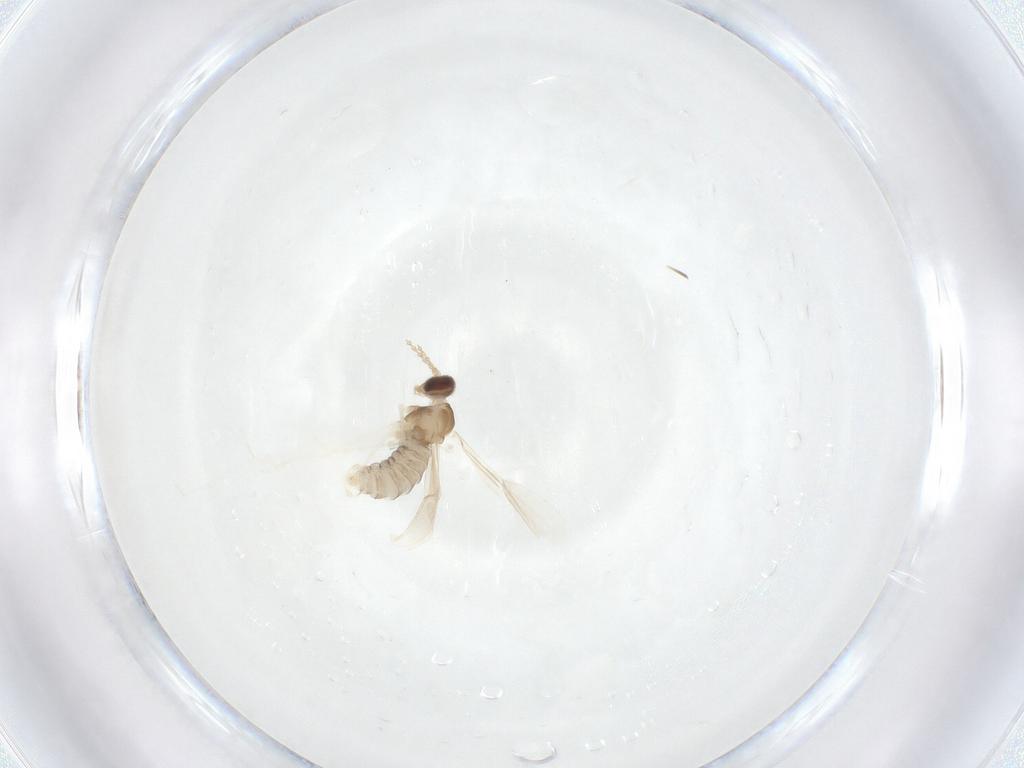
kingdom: Animalia
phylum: Arthropoda
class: Insecta
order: Diptera
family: Cecidomyiidae
